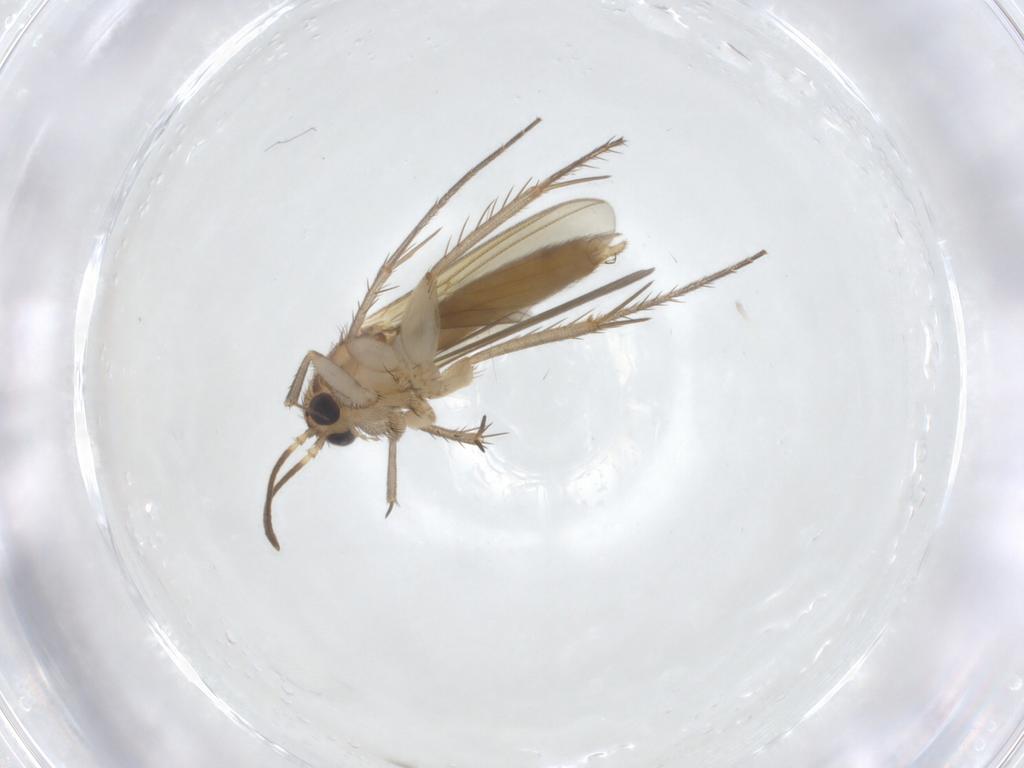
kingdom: Animalia
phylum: Arthropoda
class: Insecta
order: Diptera
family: Mycetophilidae
